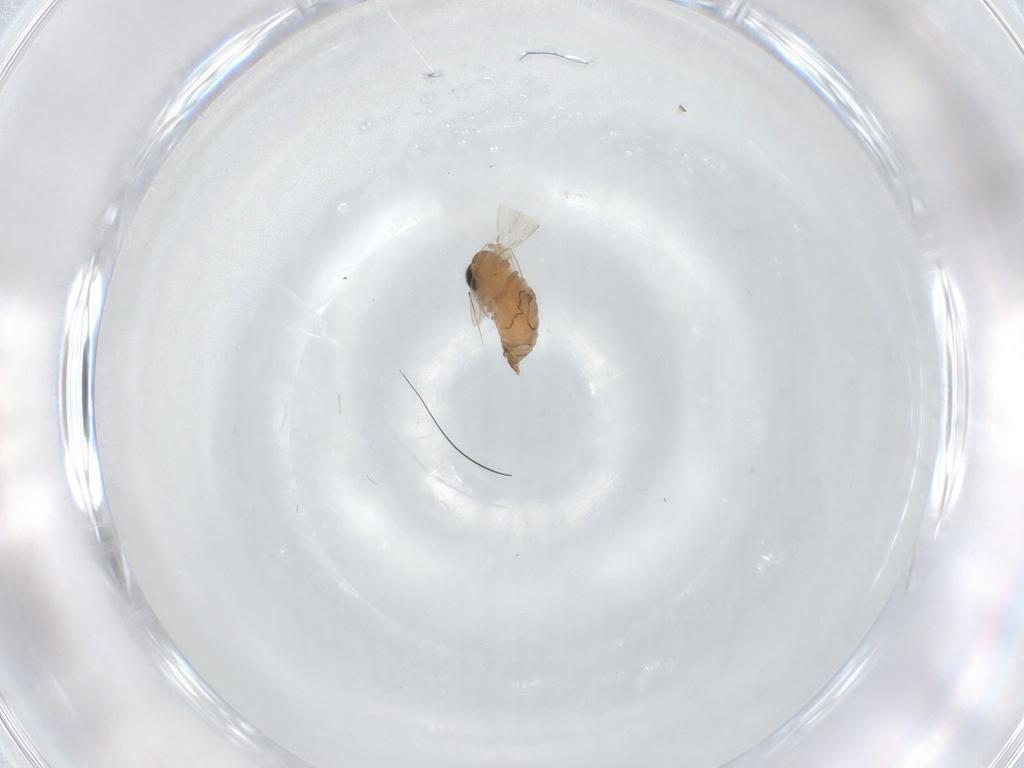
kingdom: Animalia
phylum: Arthropoda
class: Insecta
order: Diptera
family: Psychodidae
